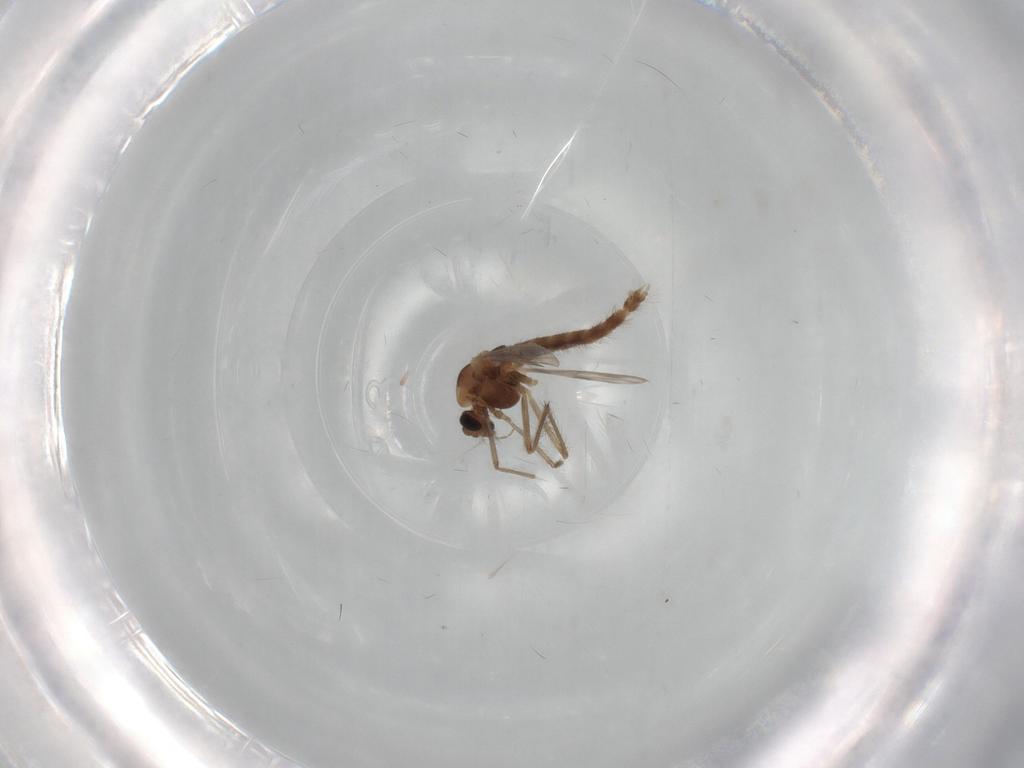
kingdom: Animalia
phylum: Arthropoda
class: Insecta
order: Diptera
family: Chironomidae
